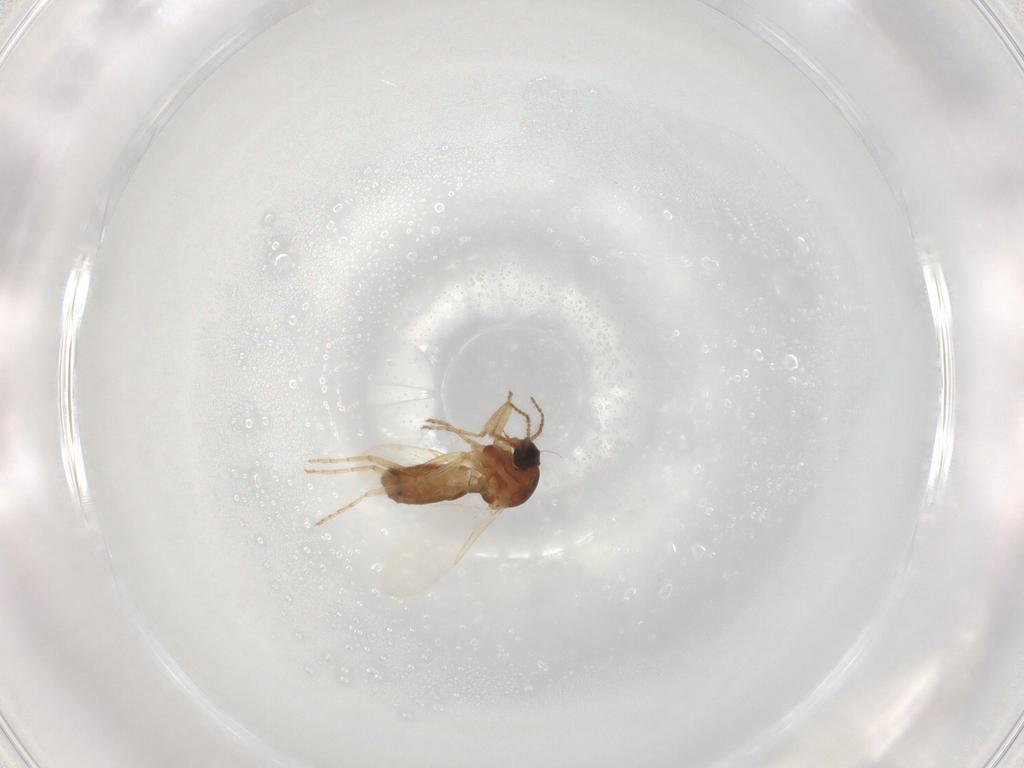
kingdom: Animalia
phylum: Arthropoda
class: Insecta
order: Diptera
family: Ceratopogonidae
